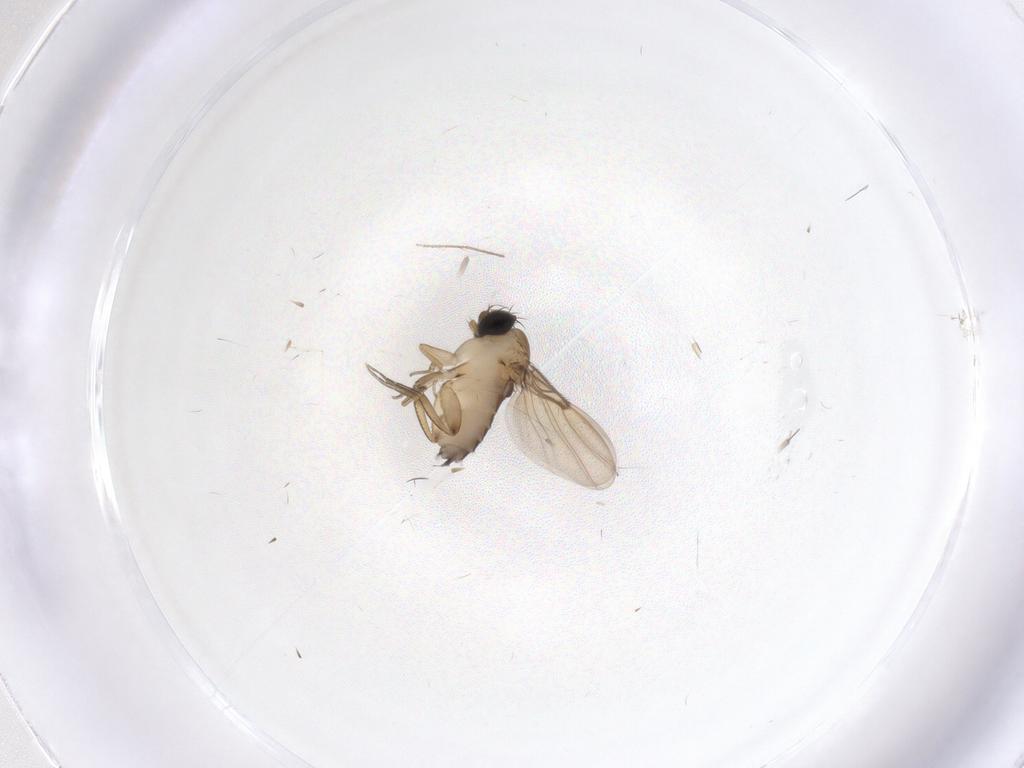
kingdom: Animalia
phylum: Arthropoda
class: Insecta
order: Diptera
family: Phoridae
